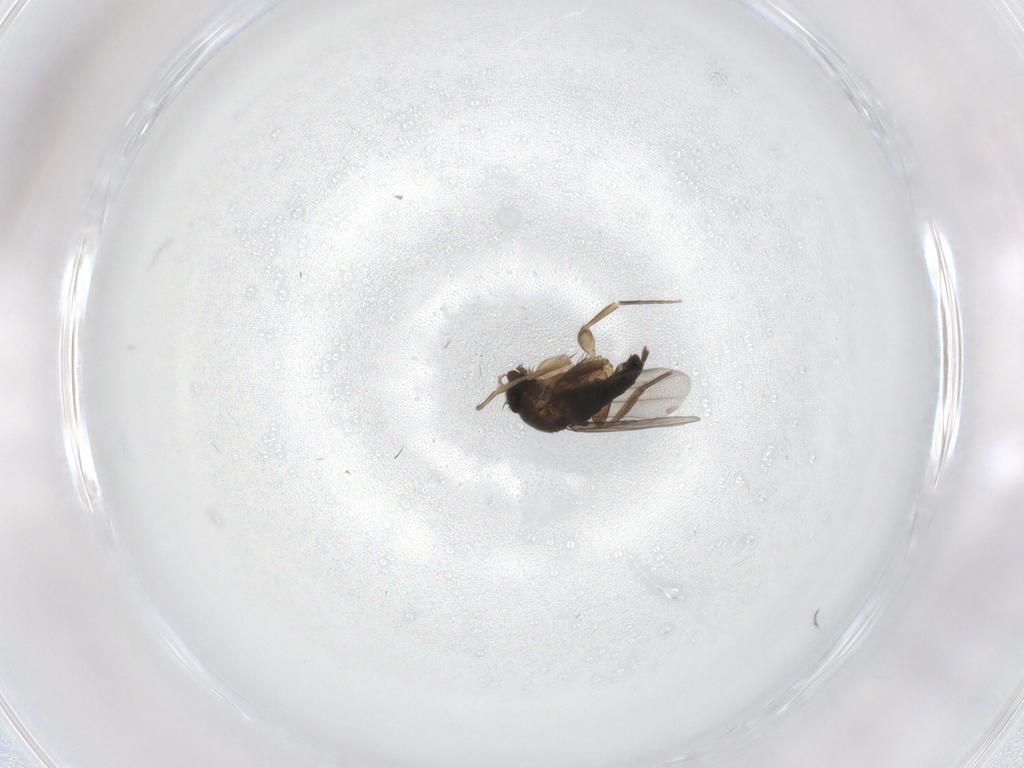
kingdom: Animalia
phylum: Arthropoda
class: Insecta
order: Diptera
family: Phoridae
